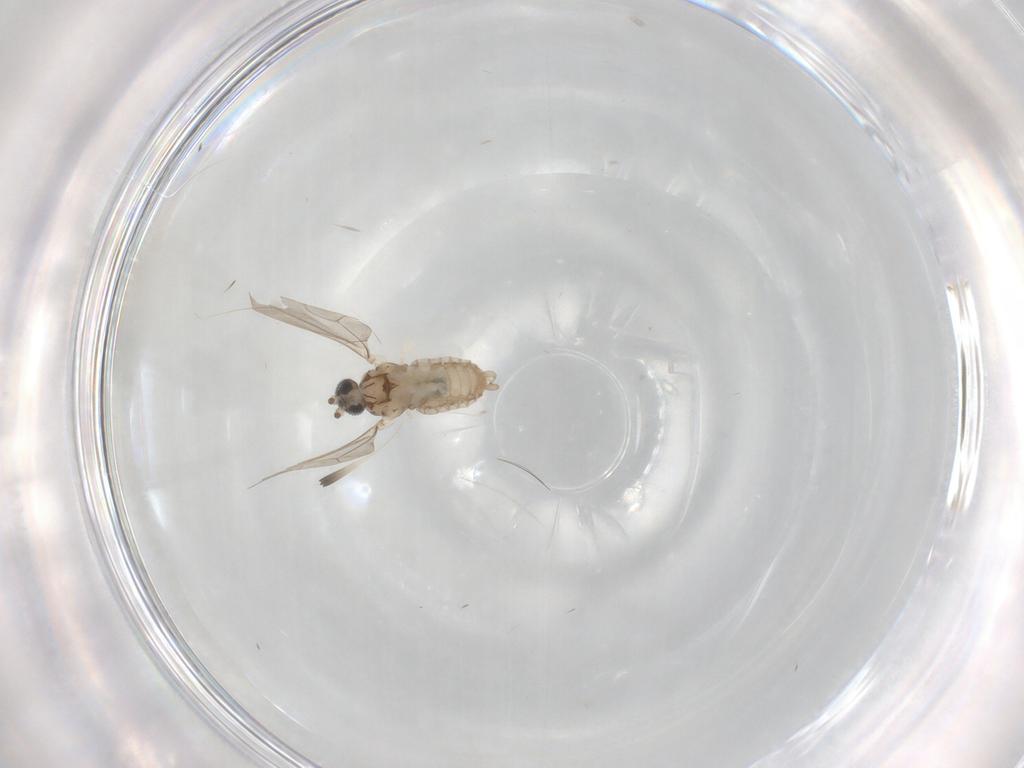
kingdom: Animalia
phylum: Arthropoda
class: Insecta
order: Diptera
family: Cecidomyiidae
